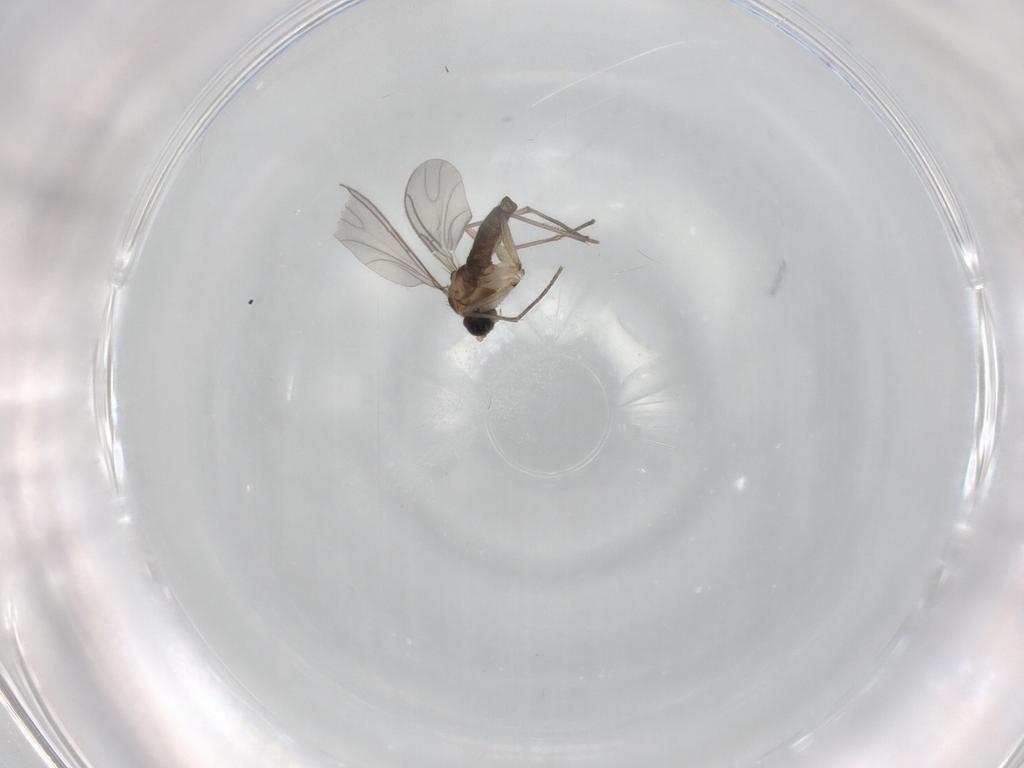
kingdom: Animalia
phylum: Arthropoda
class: Insecta
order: Diptera
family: Sciaridae
